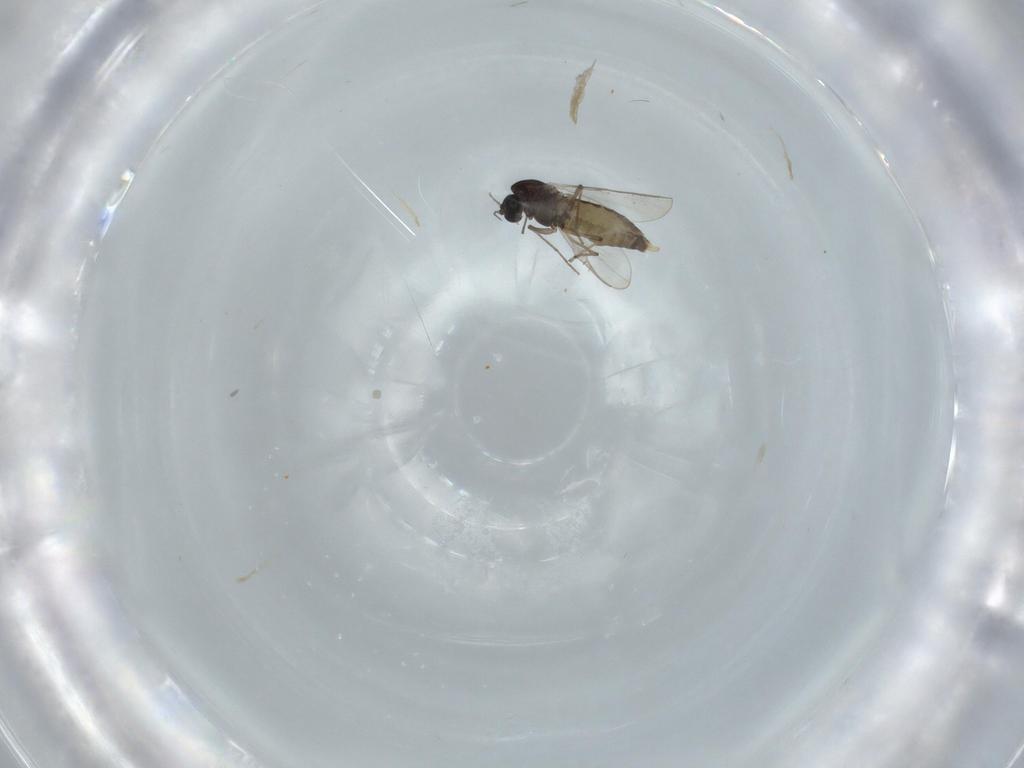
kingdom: Animalia
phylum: Arthropoda
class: Insecta
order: Diptera
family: Chironomidae
